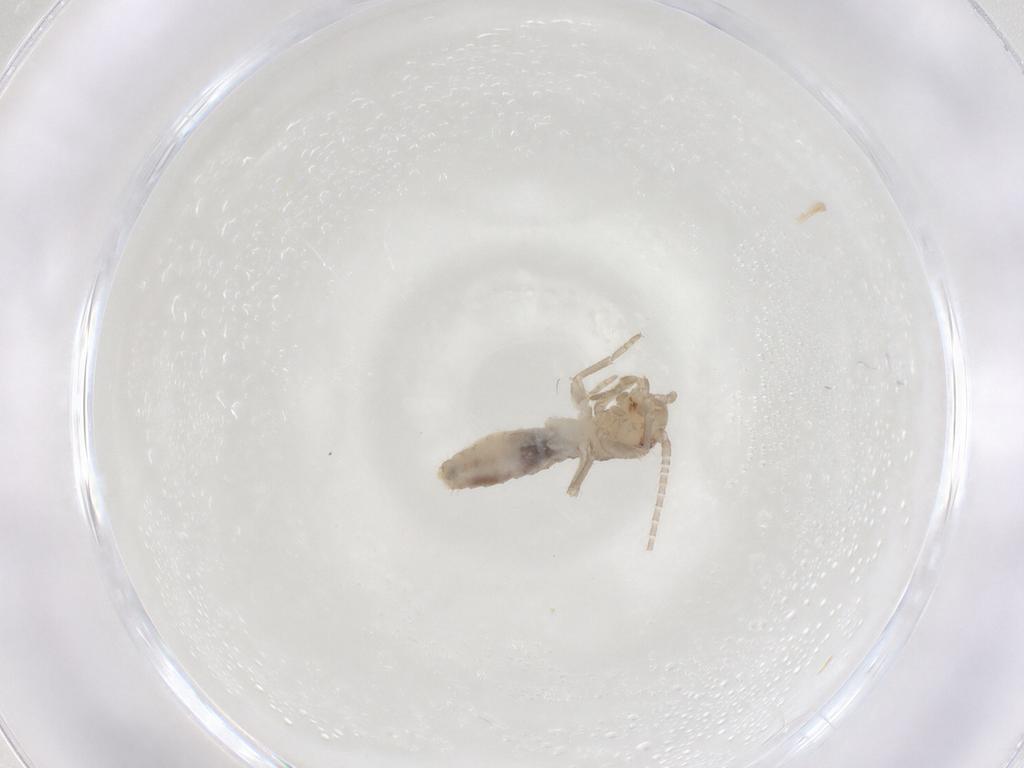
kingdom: Animalia
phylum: Arthropoda
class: Insecta
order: Orthoptera
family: Gryllidae
